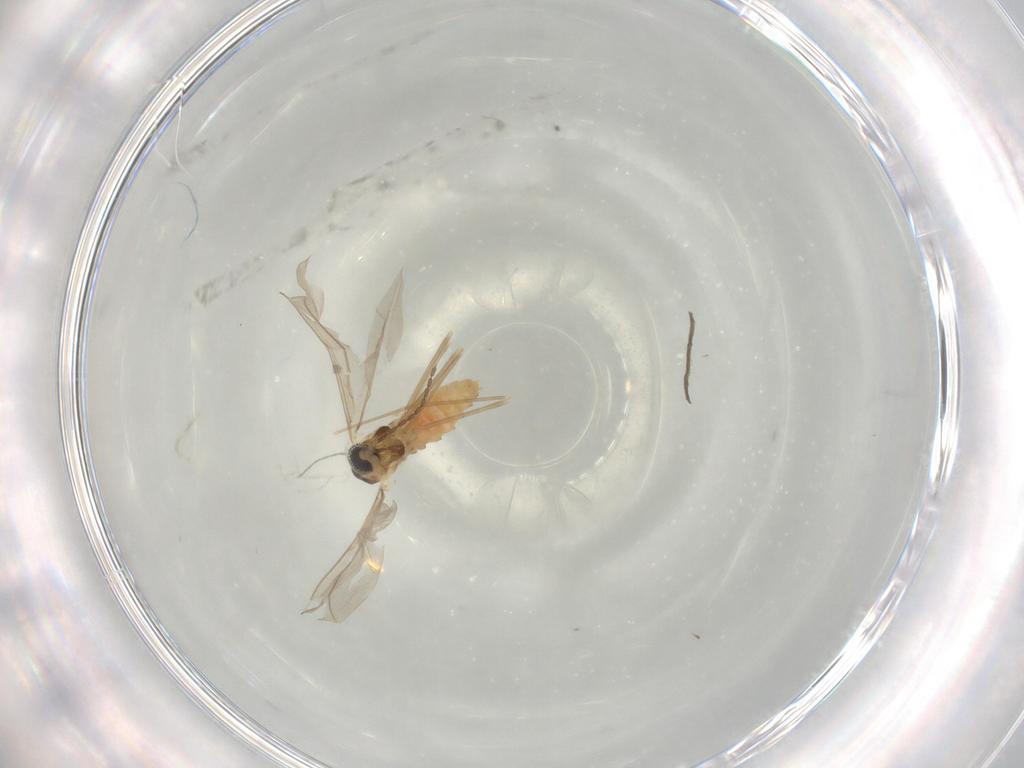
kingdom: Animalia
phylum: Arthropoda
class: Insecta
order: Diptera
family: Cecidomyiidae
